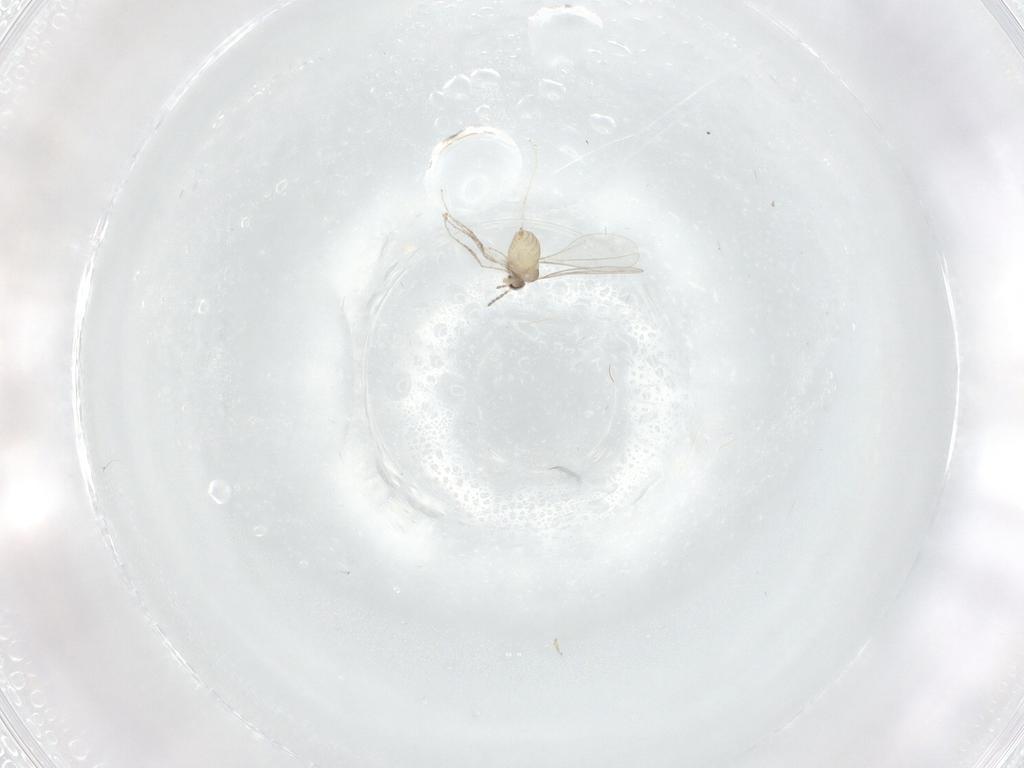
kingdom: Animalia
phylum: Arthropoda
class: Insecta
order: Diptera
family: Cecidomyiidae
